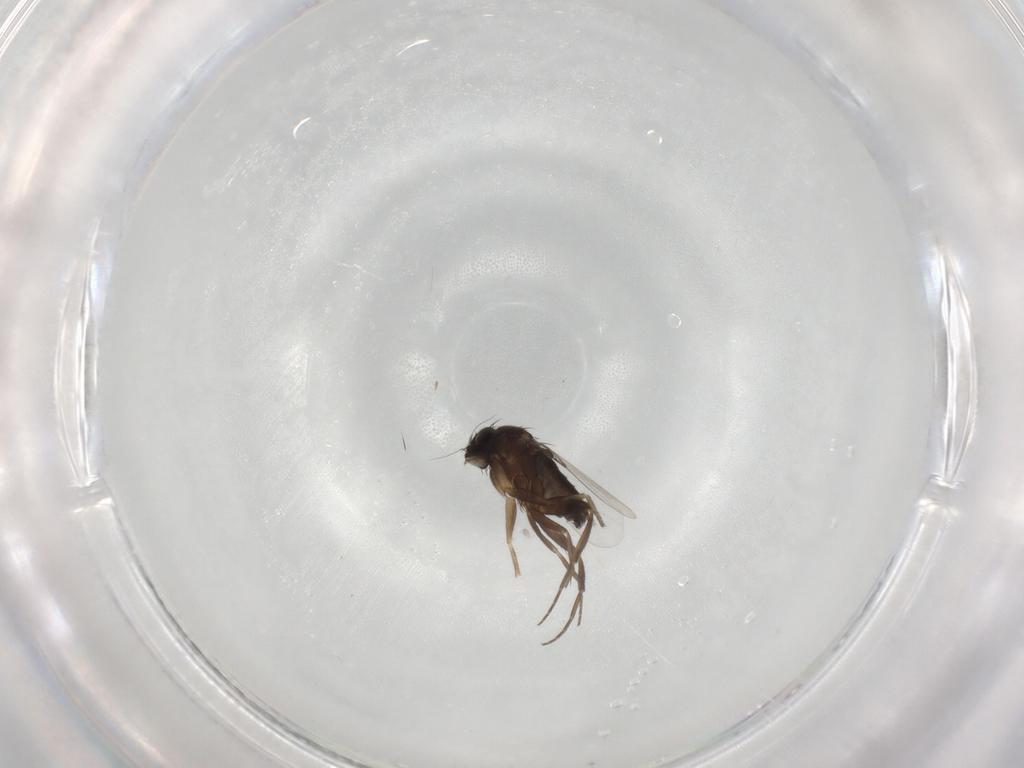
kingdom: Animalia
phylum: Arthropoda
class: Insecta
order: Diptera
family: Phoridae
